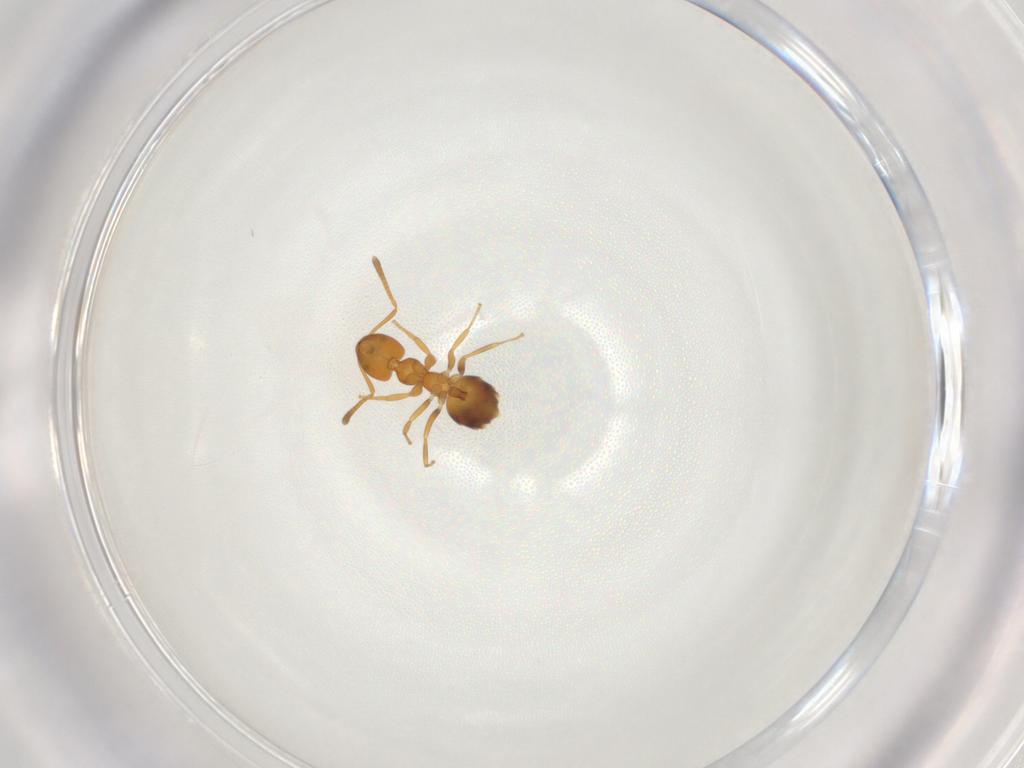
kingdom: Animalia
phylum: Arthropoda
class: Insecta
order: Hymenoptera
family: Formicidae
